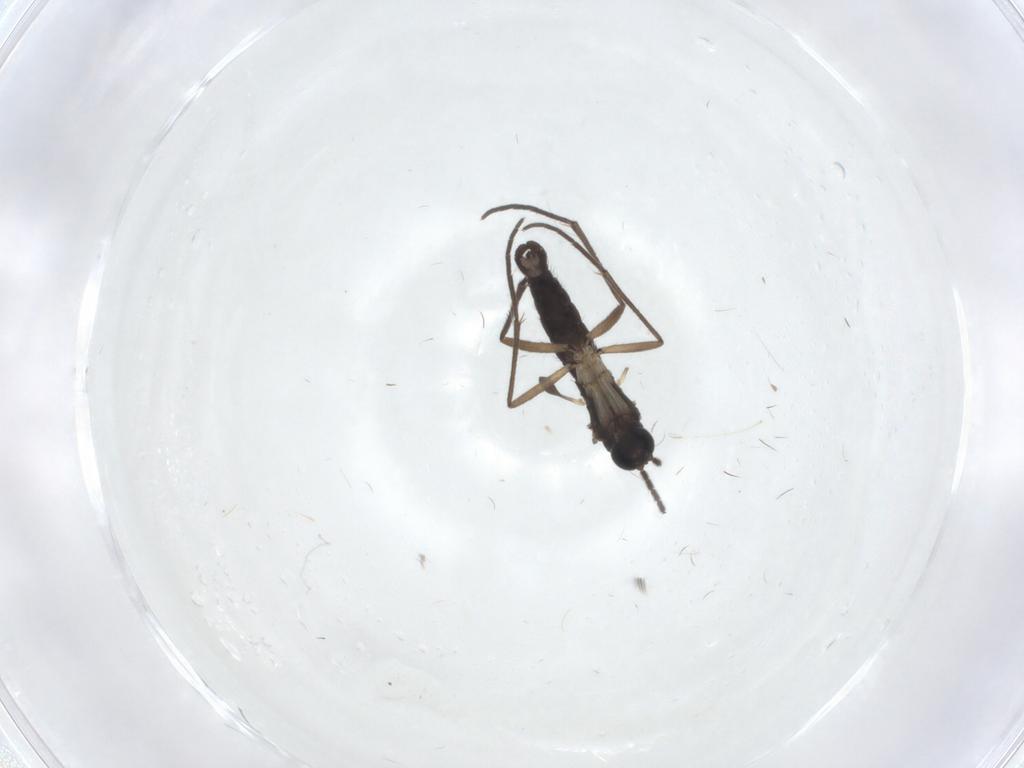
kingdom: Animalia
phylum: Arthropoda
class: Insecta
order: Diptera
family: Sciaridae
